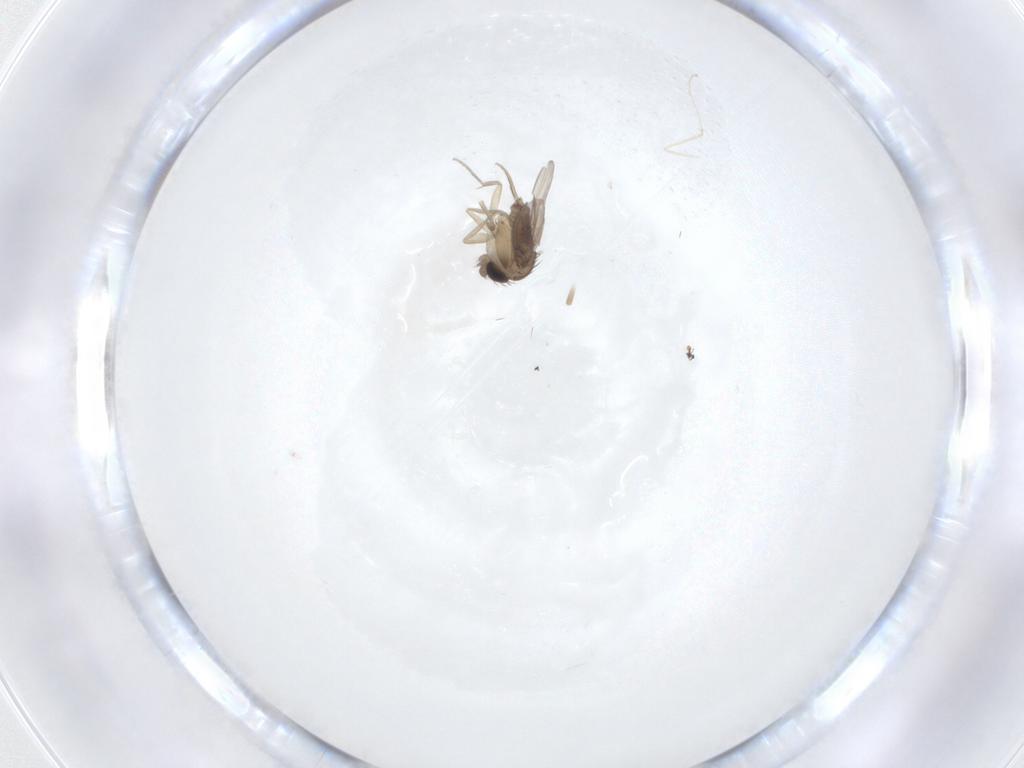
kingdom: Animalia
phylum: Arthropoda
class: Insecta
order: Diptera
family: Phoridae
